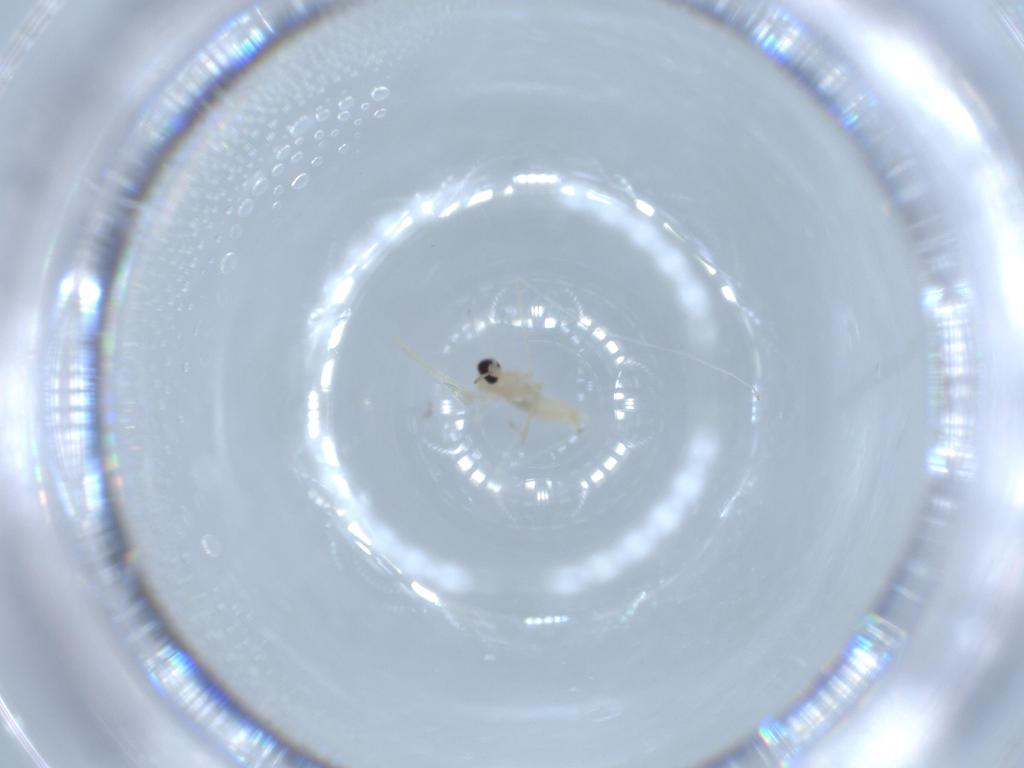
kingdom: Animalia
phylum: Arthropoda
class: Insecta
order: Diptera
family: Cecidomyiidae
